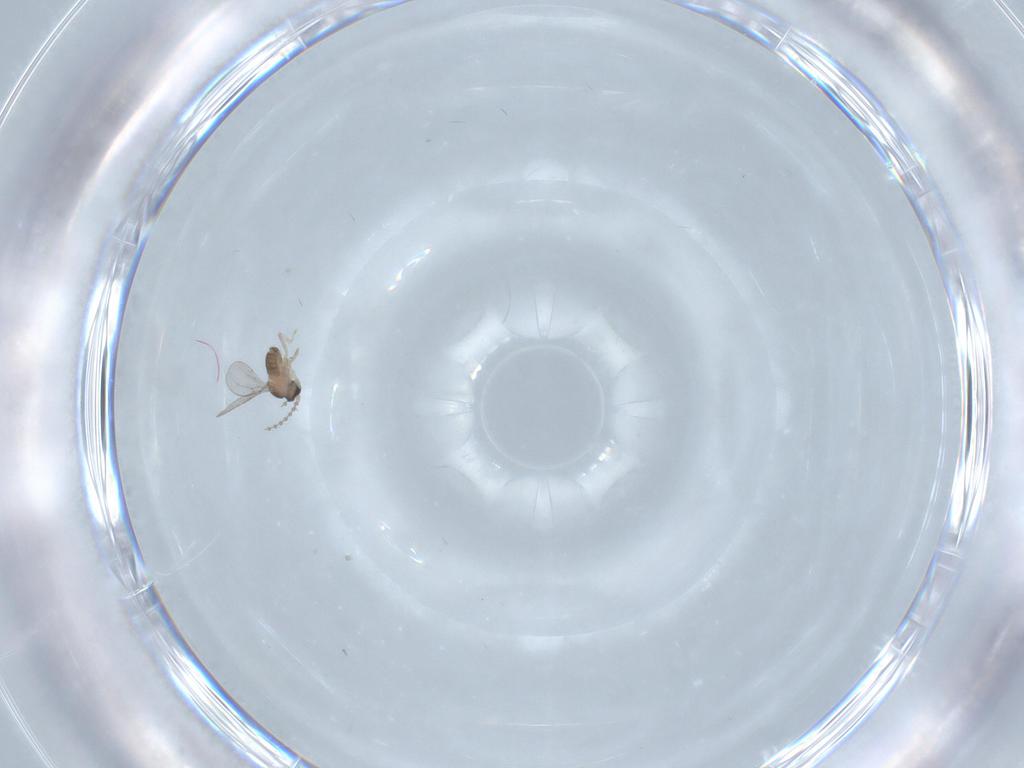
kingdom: Animalia
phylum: Arthropoda
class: Insecta
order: Diptera
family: Cecidomyiidae
